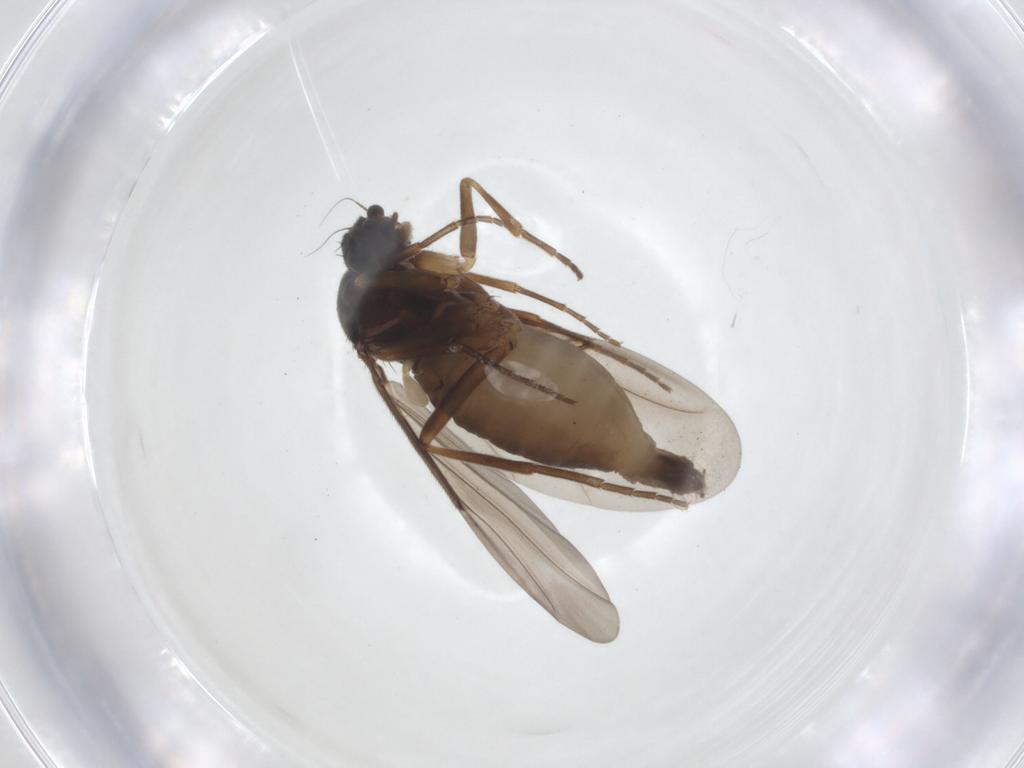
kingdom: Animalia
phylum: Arthropoda
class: Insecta
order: Diptera
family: Phoridae
